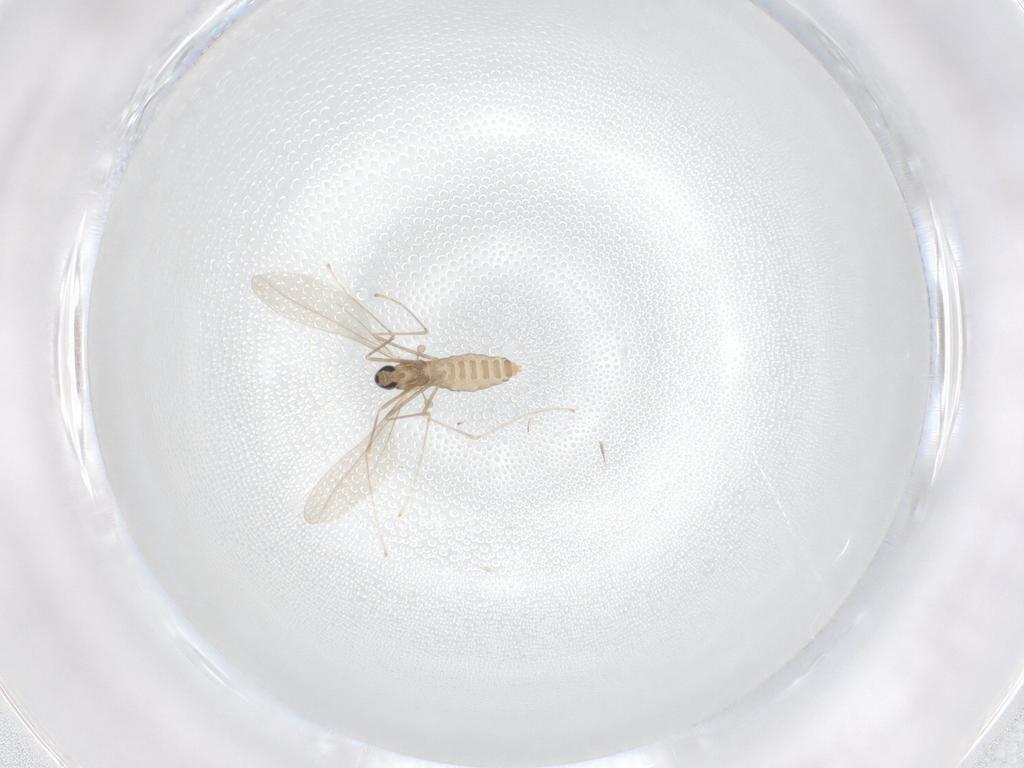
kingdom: Animalia
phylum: Arthropoda
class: Insecta
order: Diptera
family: Cecidomyiidae
